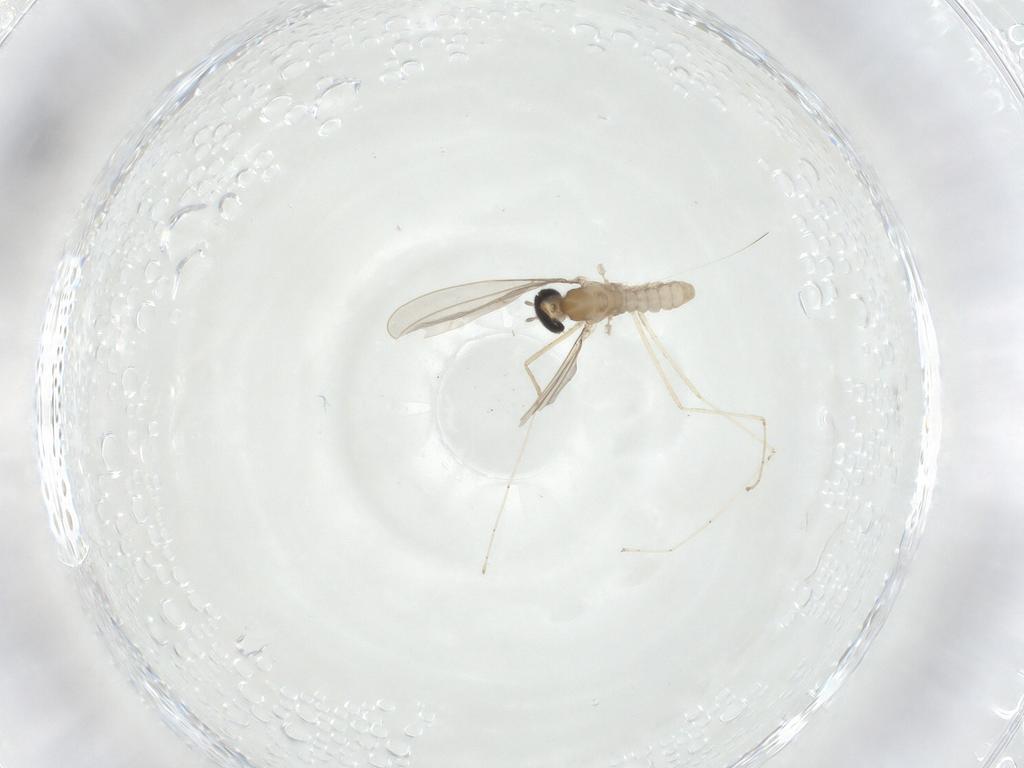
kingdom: Animalia
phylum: Arthropoda
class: Insecta
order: Diptera
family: Cecidomyiidae
